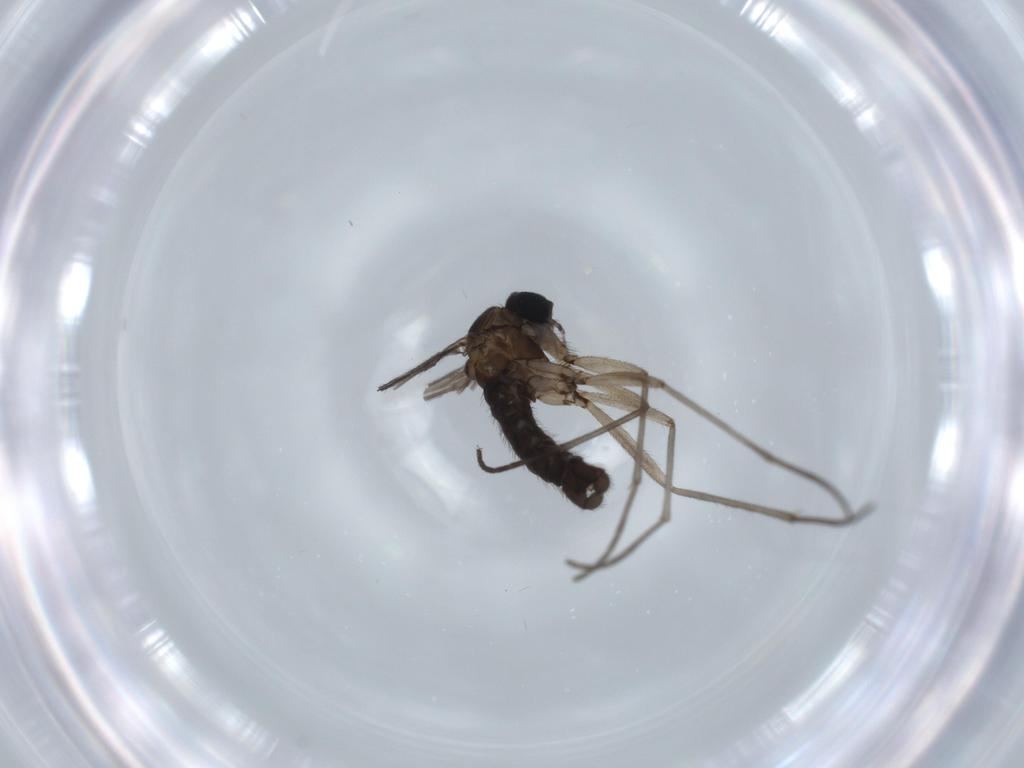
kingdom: Animalia
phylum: Arthropoda
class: Insecta
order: Diptera
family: Sciaridae
